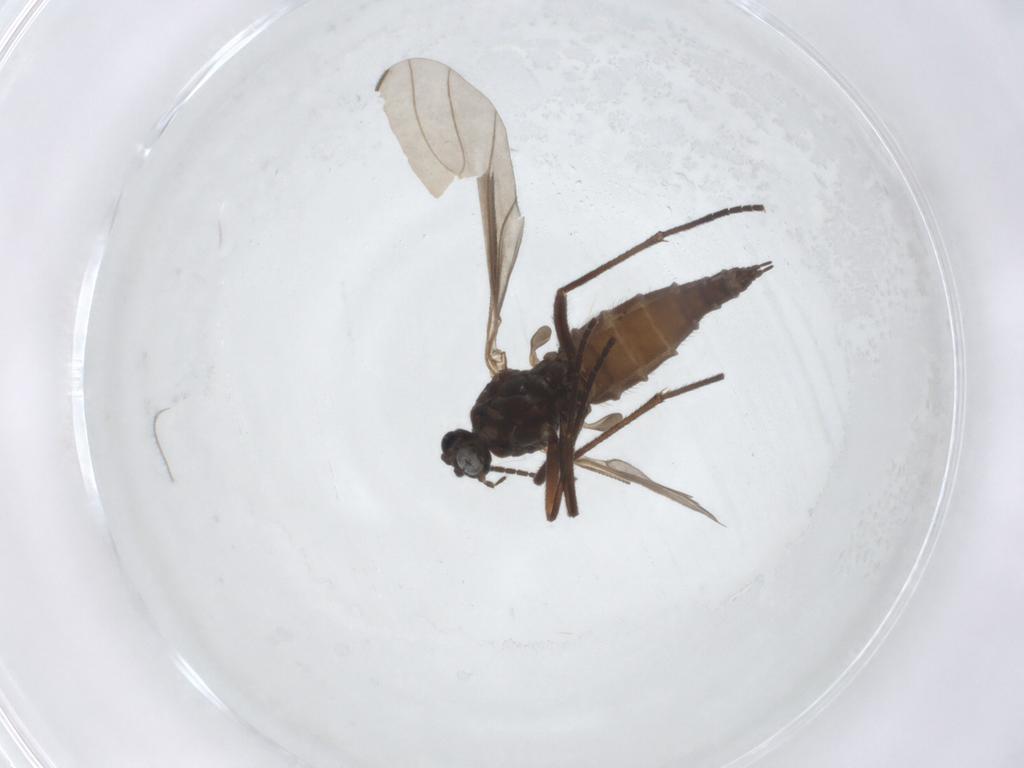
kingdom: Animalia
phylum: Arthropoda
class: Insecta
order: Diptera
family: Sciaridae
